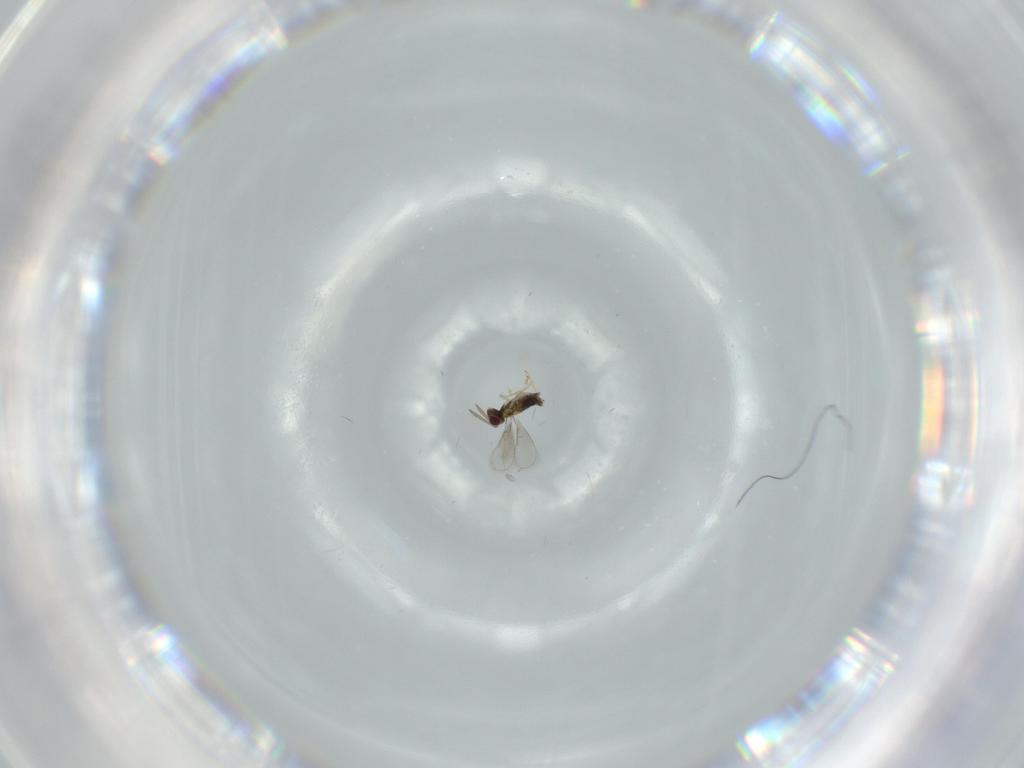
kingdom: Animalia
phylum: Arthropoda
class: Insecta
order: Hymenoptera
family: Aphelinidae
